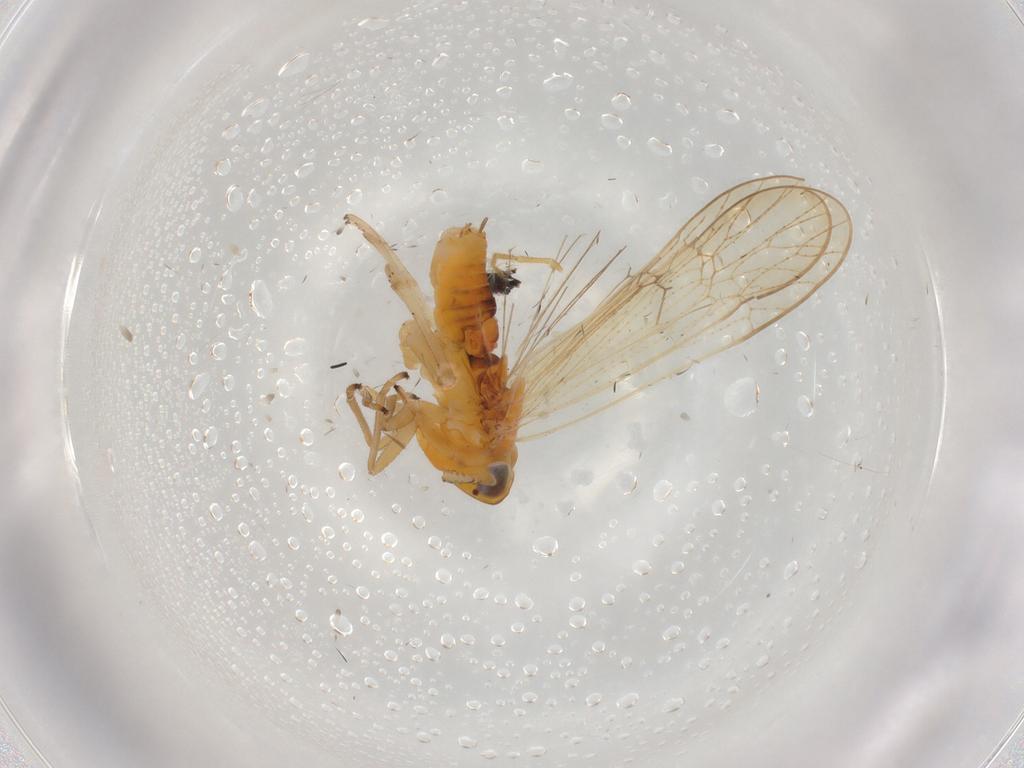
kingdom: Animalia
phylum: Arthropoda
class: Insecta
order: Hemiptera
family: Delphacidae
